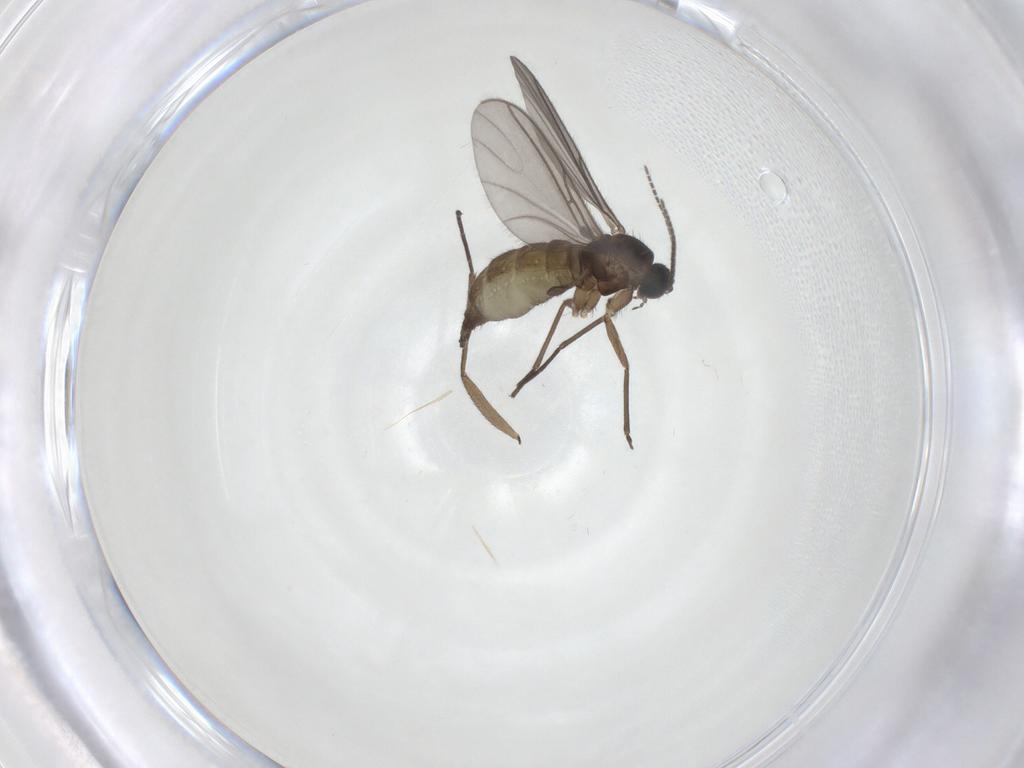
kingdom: Animalia
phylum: Arthropoda
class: Insecta
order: Diptera
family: Sciaridae
